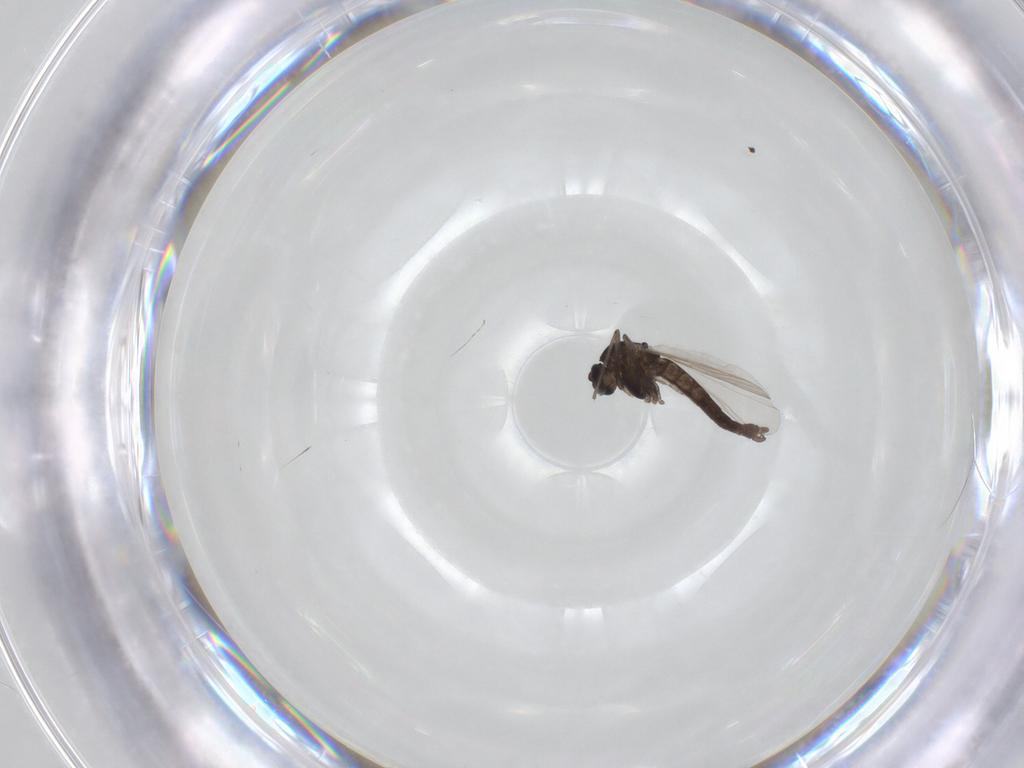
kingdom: Animalia
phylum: Arthropoda
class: Insecta
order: Diptera
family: Chironomidae
